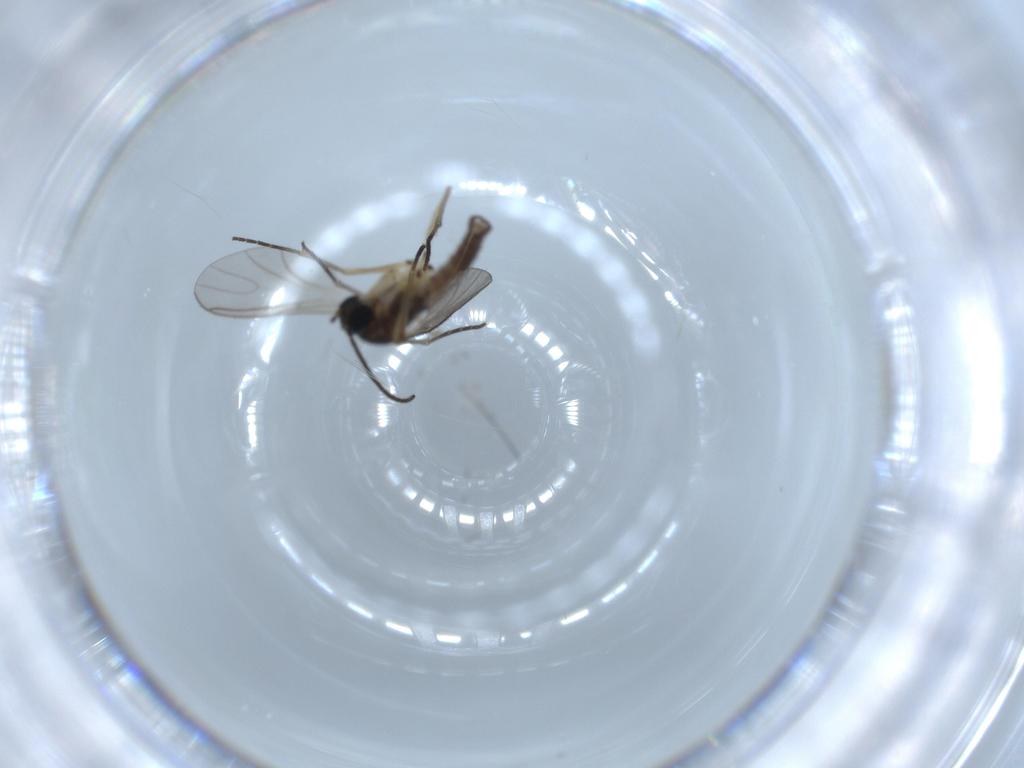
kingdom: Animalia
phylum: Arthropoda
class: Insecta
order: Diptera
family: Sciaridae
